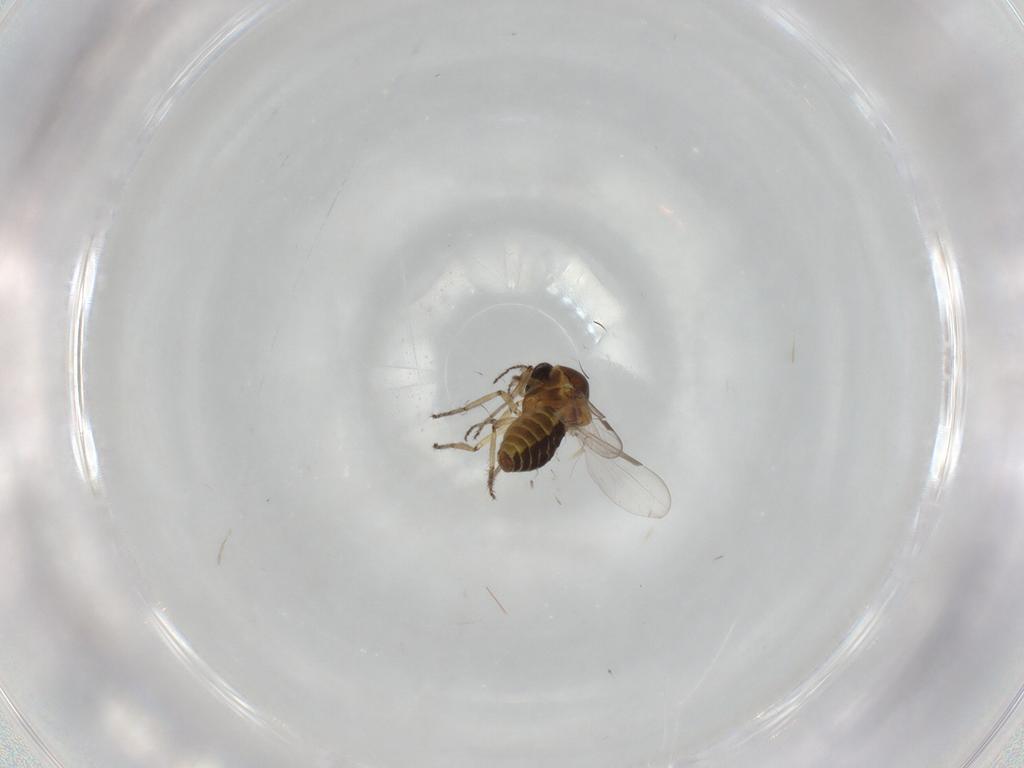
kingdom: Animalia
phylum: Arthropoda
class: Insecta
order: Diptera
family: Ceratopogonidae
